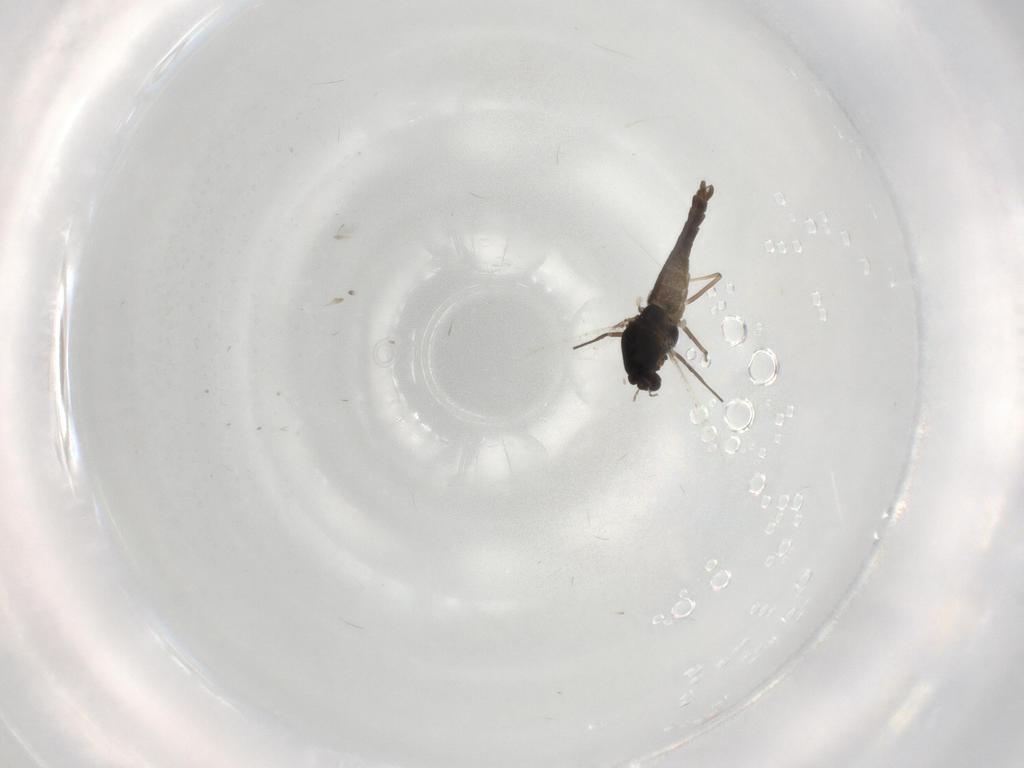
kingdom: Animalia
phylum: Arthropoda
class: Insecta
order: Diptera
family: Chironomidae
